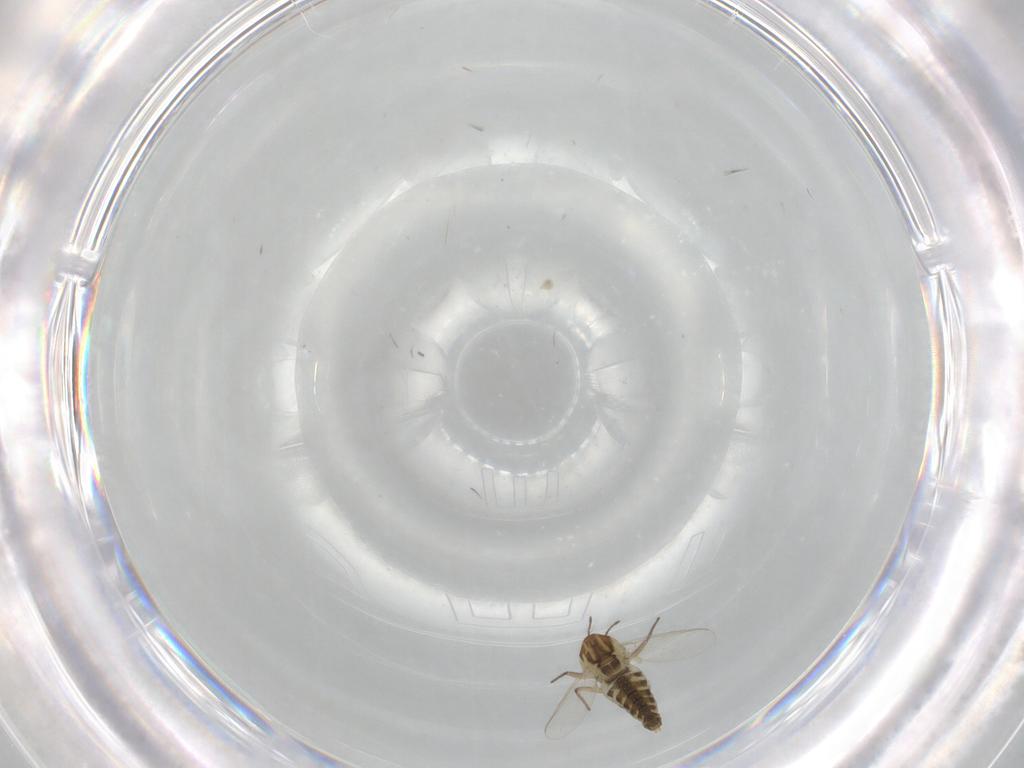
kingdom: Animalia
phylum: Arthropoda
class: Insecta
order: Diptera
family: Chironomidae
